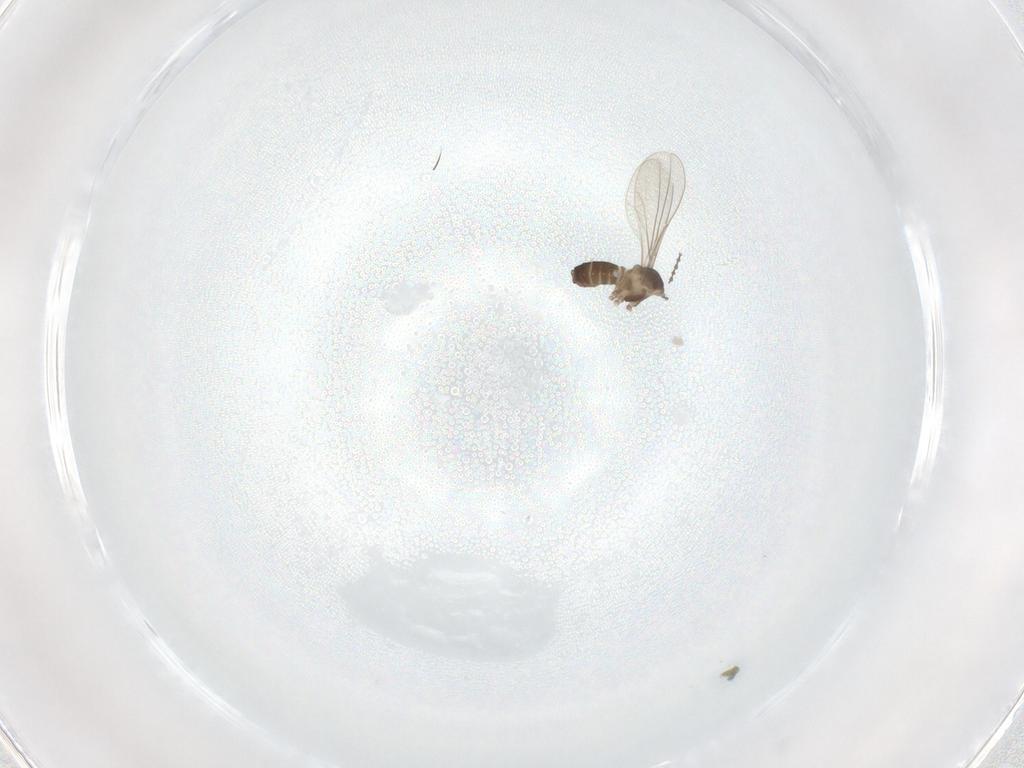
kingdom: Animalia
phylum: Arthropoda
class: Insecta
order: Diptera
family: Cecidomyiidae
